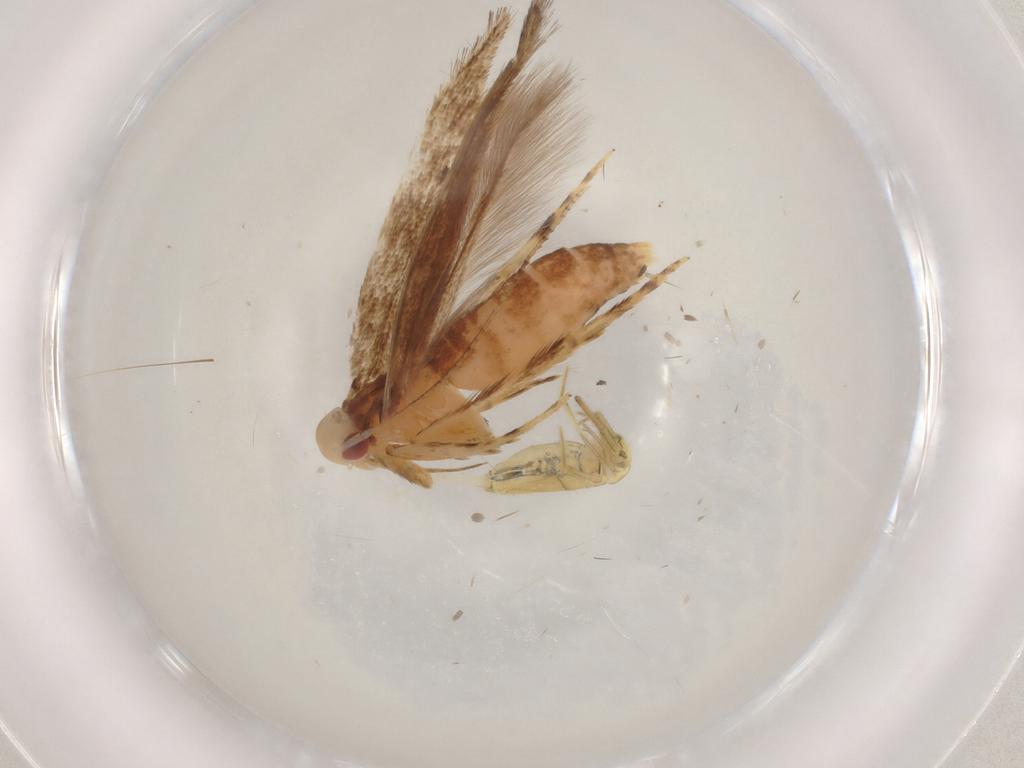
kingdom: Animalia
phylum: Arthropoda
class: Insecta
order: Lepidoptera
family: Cosmopterigidae
